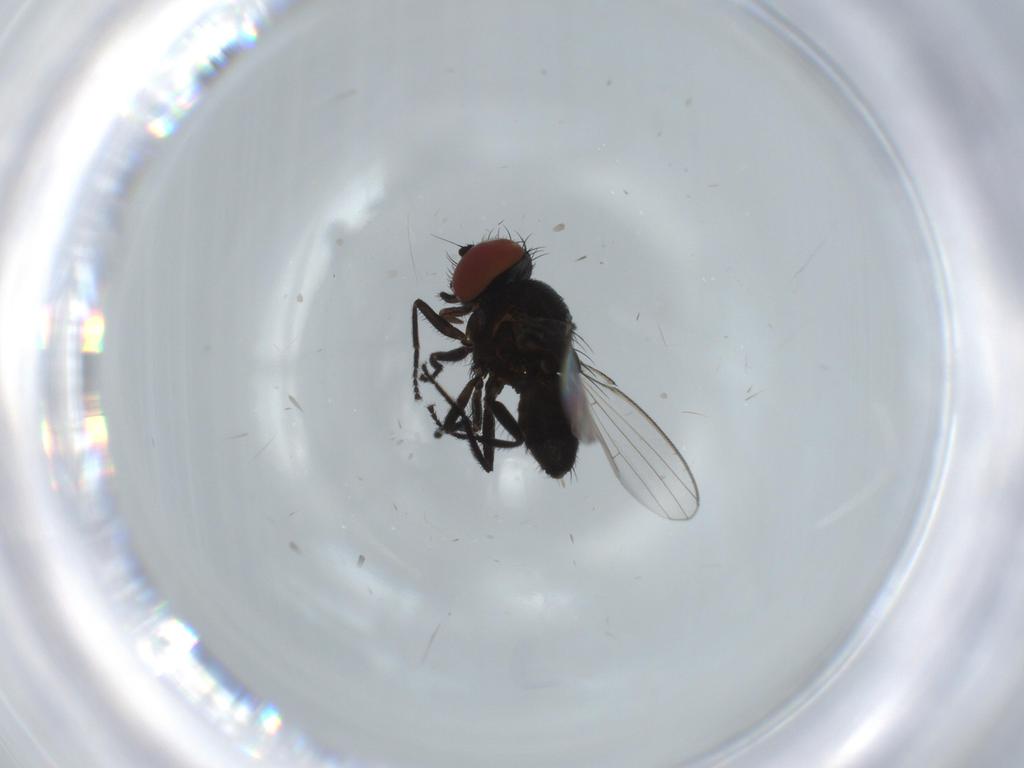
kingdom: Animalia
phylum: Arthropoda
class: Insecta
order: Diptera
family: Milichiidae
